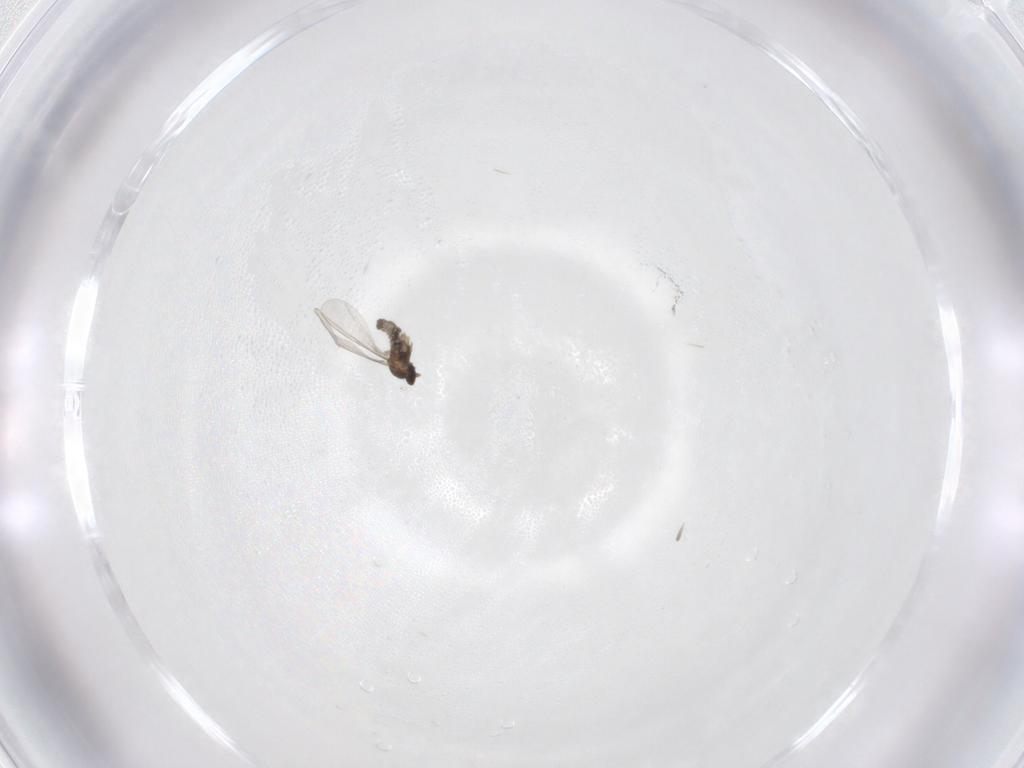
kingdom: Animalia
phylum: Arthropoda
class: Insecta
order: Diptera
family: Cecidomyiidae
